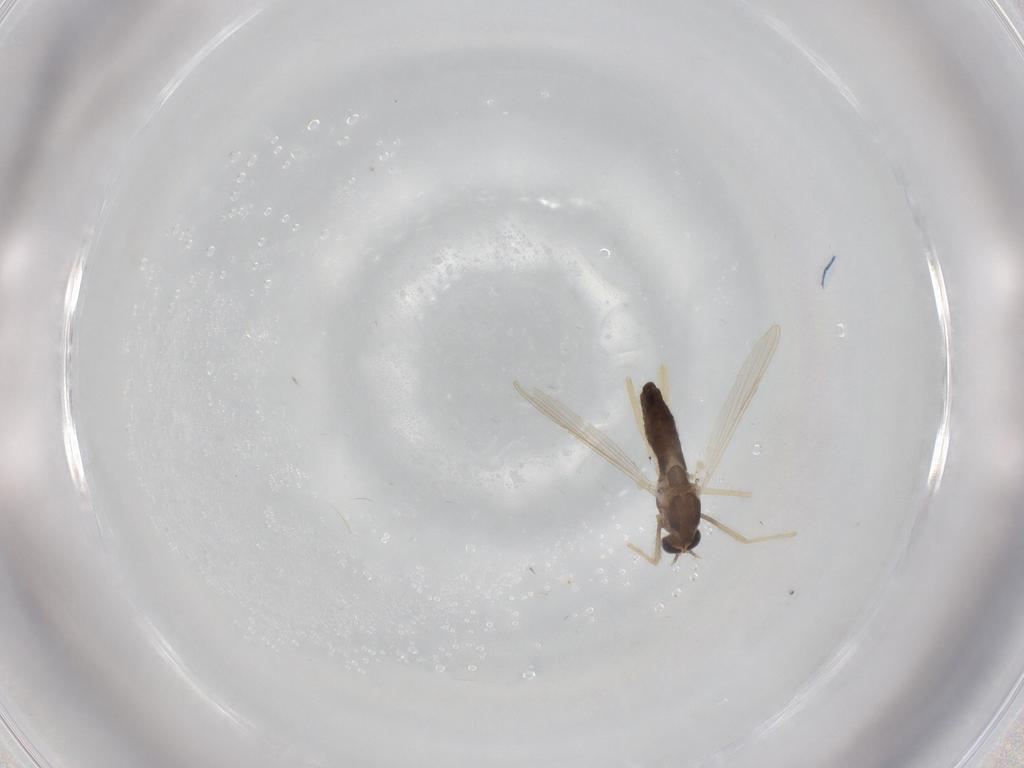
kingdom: Animalia
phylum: Arthropoda
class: Insecta
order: Diptera
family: Chironomidae
